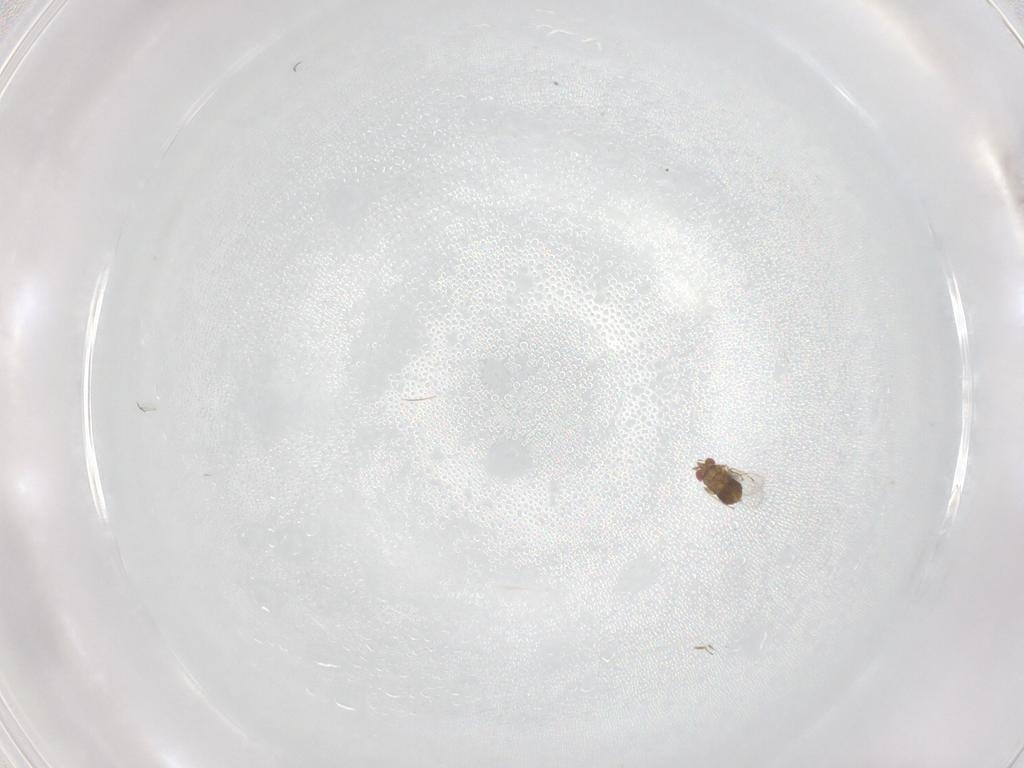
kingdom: Animalia
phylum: Arthropoda
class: Insecta
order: Hymenoptera
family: Trichogrammatidae
